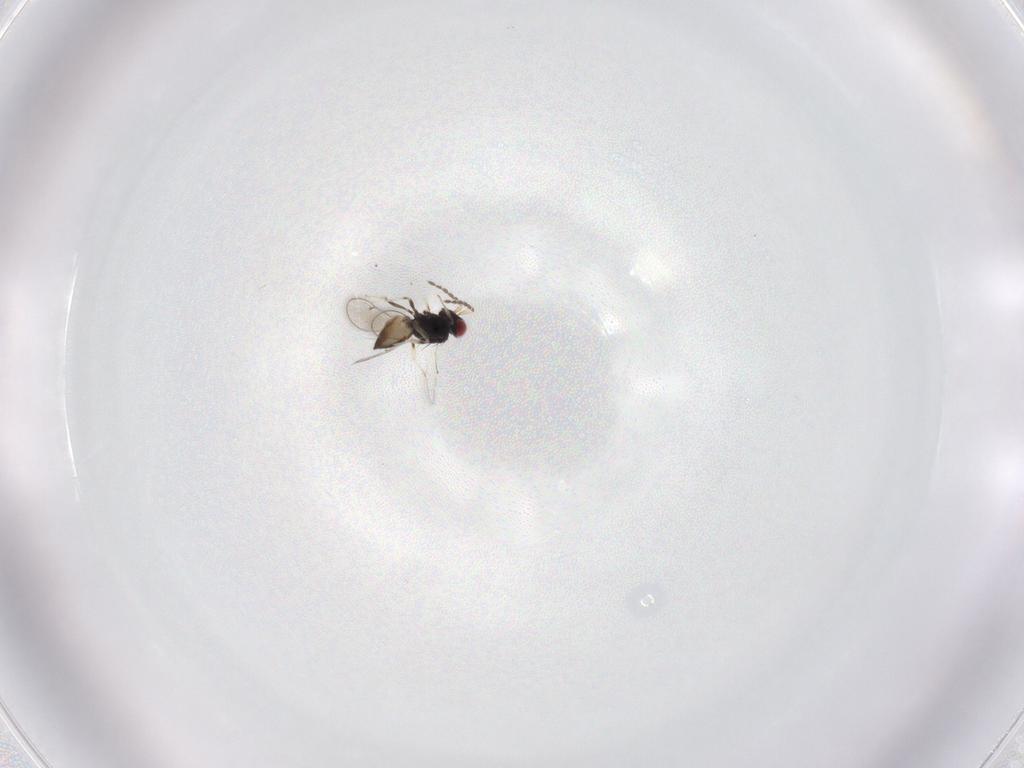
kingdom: Animalia
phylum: Arthropoda
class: Insecta
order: Hymenoptera
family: Eulophidae
